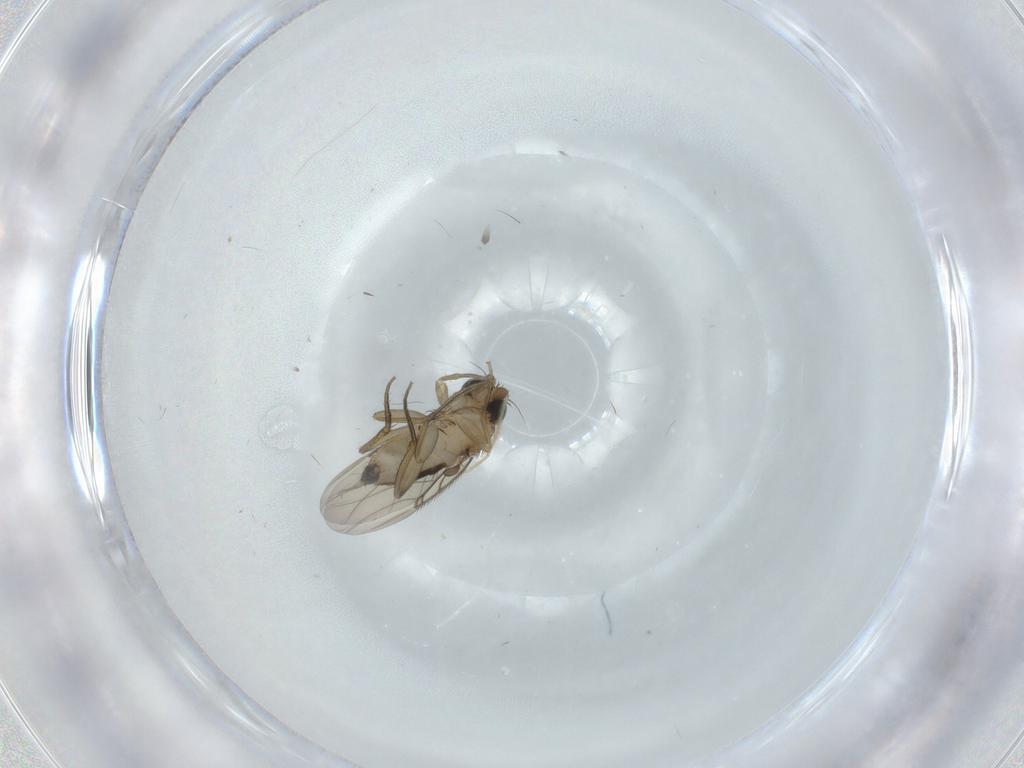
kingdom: Animalia
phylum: Arthropoda
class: Insecta
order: Diptera
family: Phoridae
